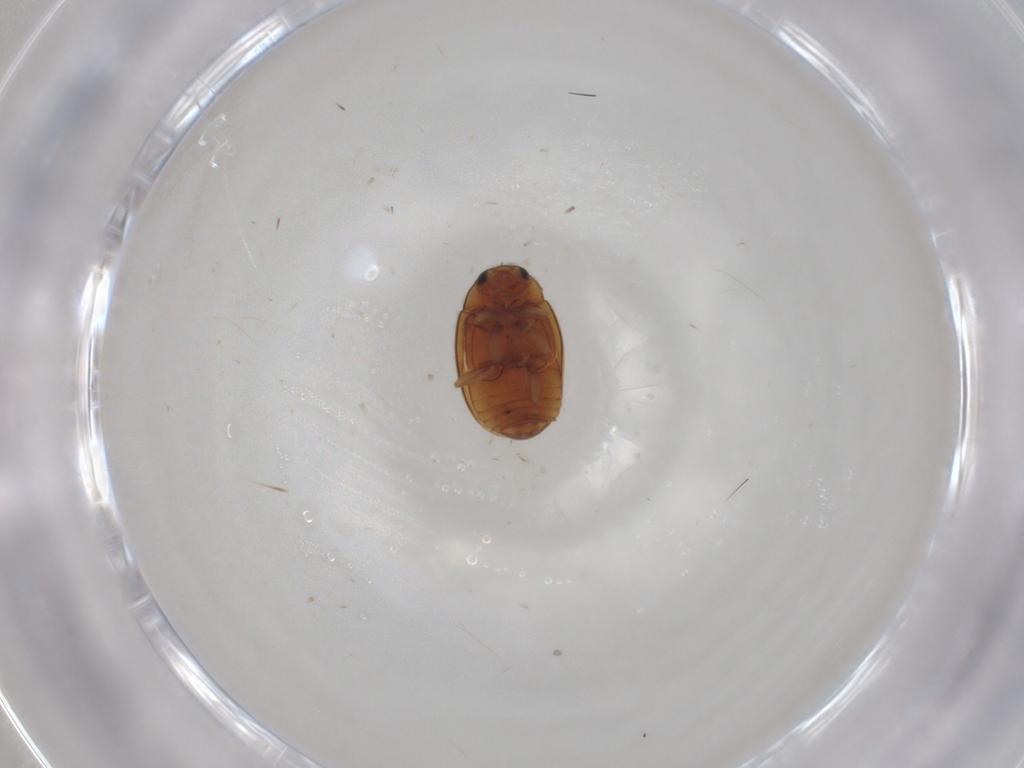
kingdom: Animalia
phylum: Arthropoda
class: Insecta
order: Coleoptera
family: Coccinellidae
